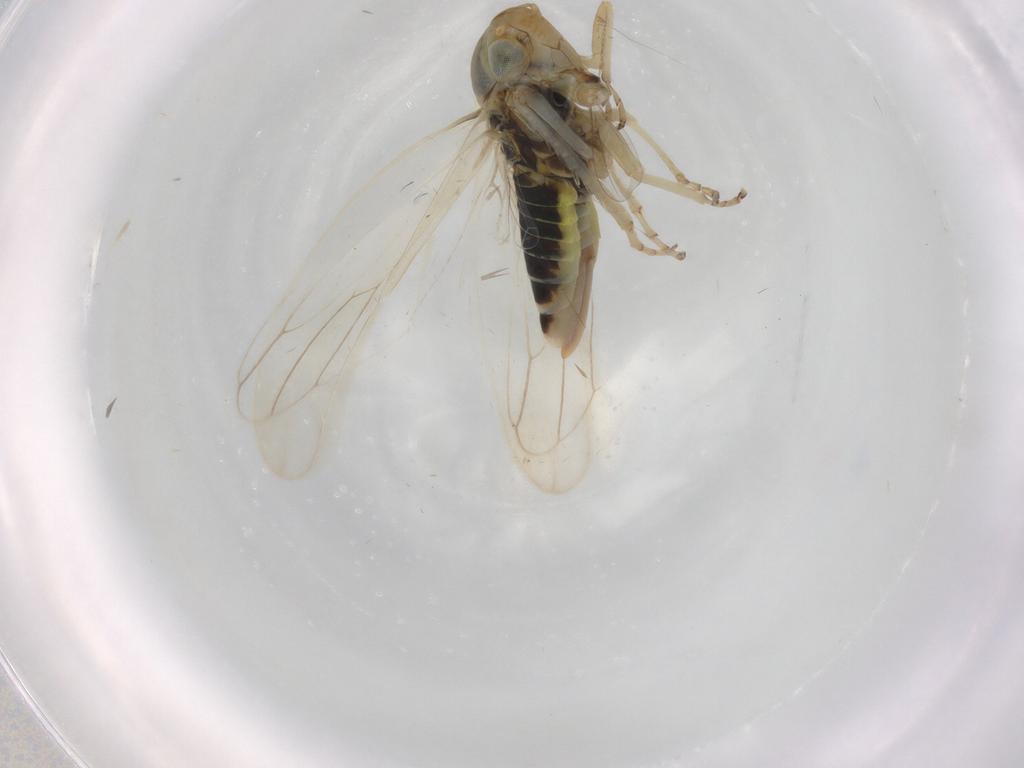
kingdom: Animalia
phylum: Arthropoda
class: Insecta
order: Hemiptera
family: Cicadellidae
